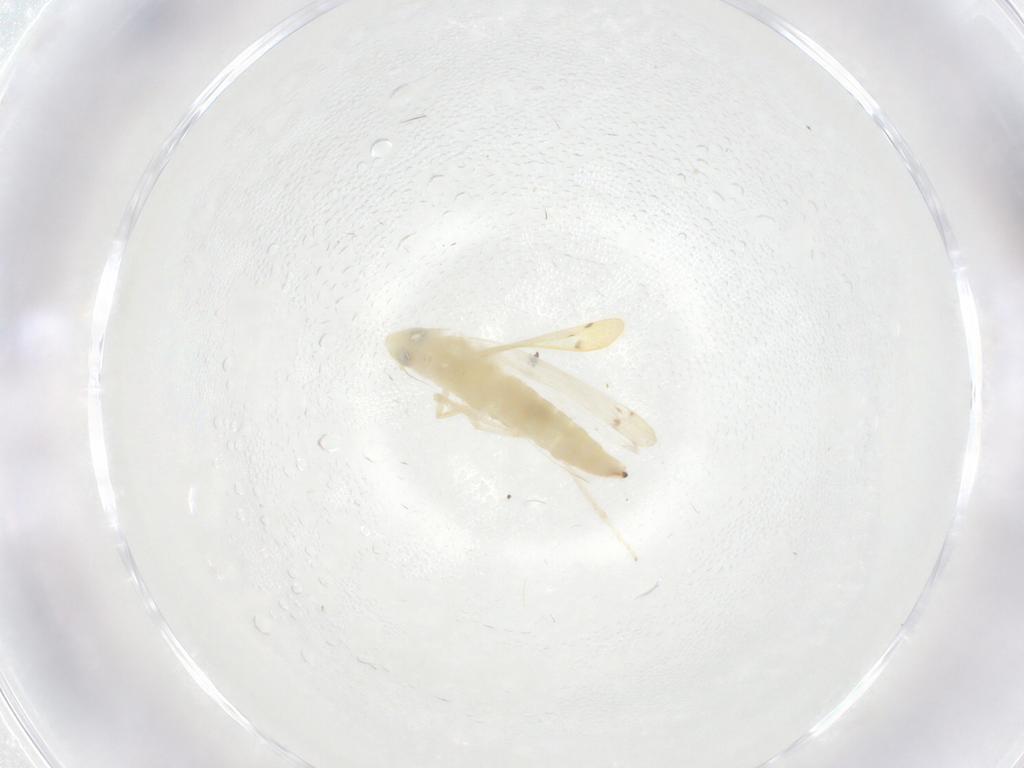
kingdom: Animalia
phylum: Arthropoda
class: Insecta
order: Hemiptera
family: Cicadellidae
